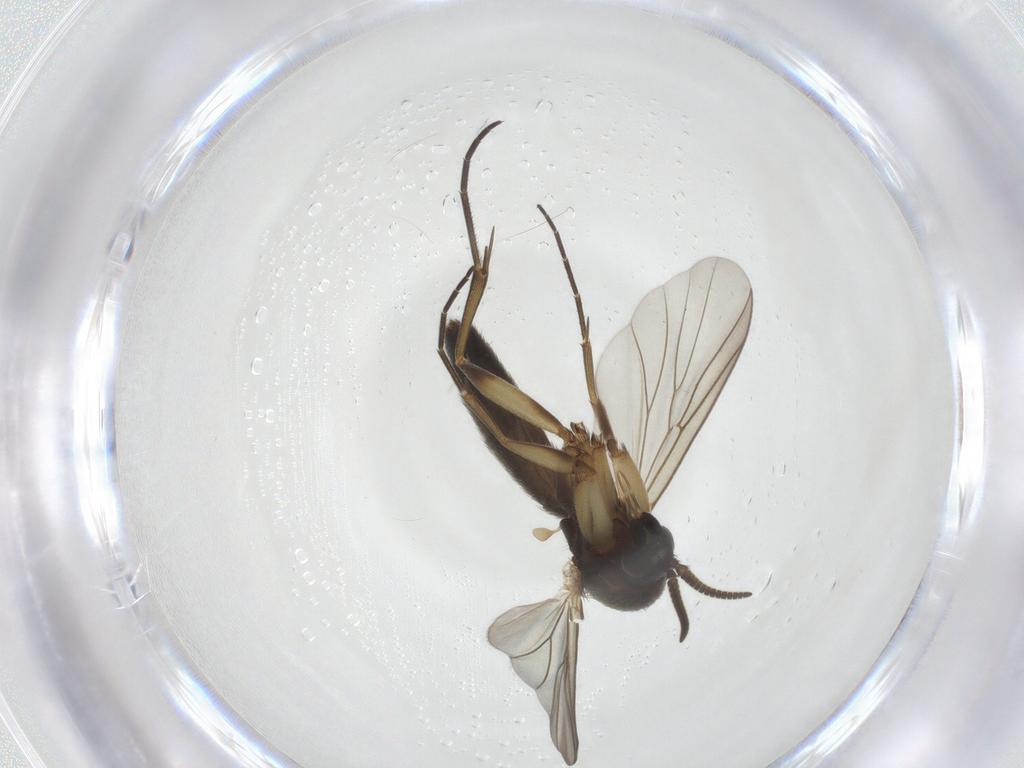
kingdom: Animalia
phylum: Arthropoda
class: Insecta
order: Diptera
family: Mycetophilidae
